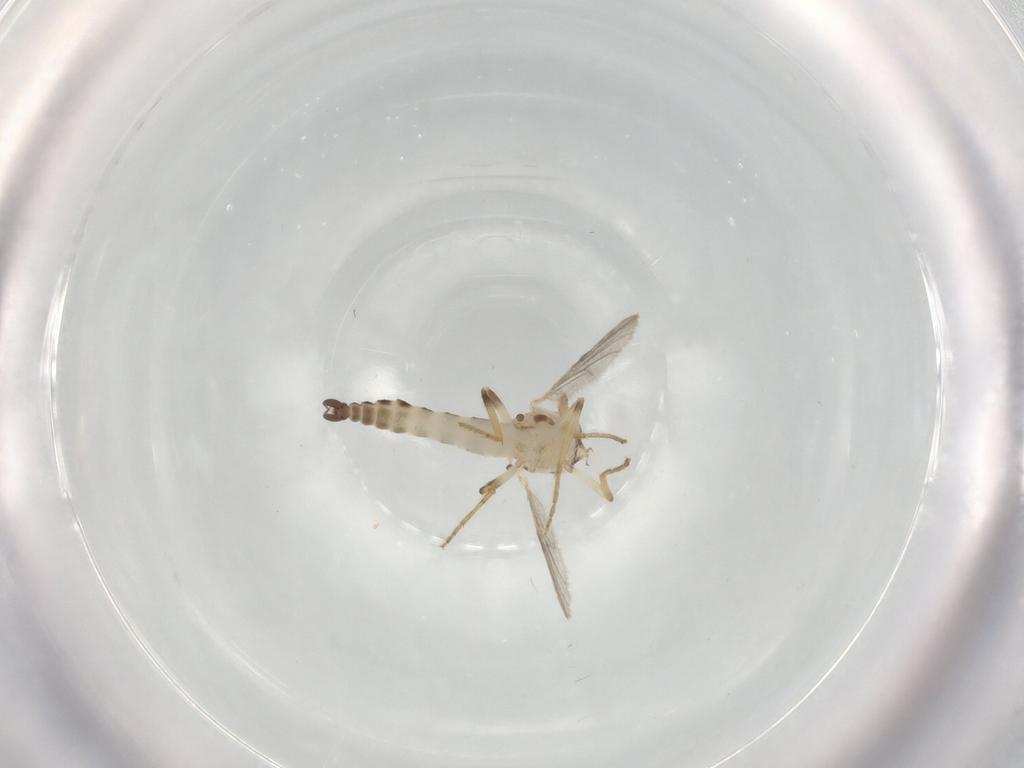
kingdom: Animalia
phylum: Arthropoda
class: Insecta
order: Diptera
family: Ceratopogonidae
